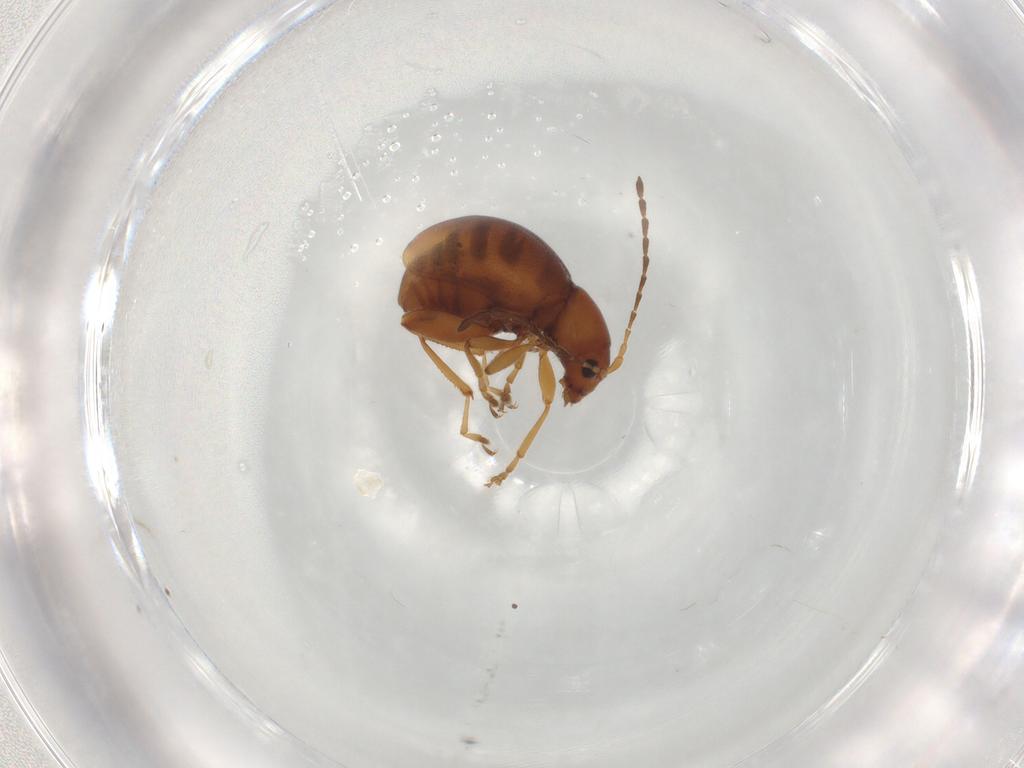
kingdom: Animalia
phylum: Arthropoda
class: Insecta
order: Coleoptera
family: Chrysomelidae
